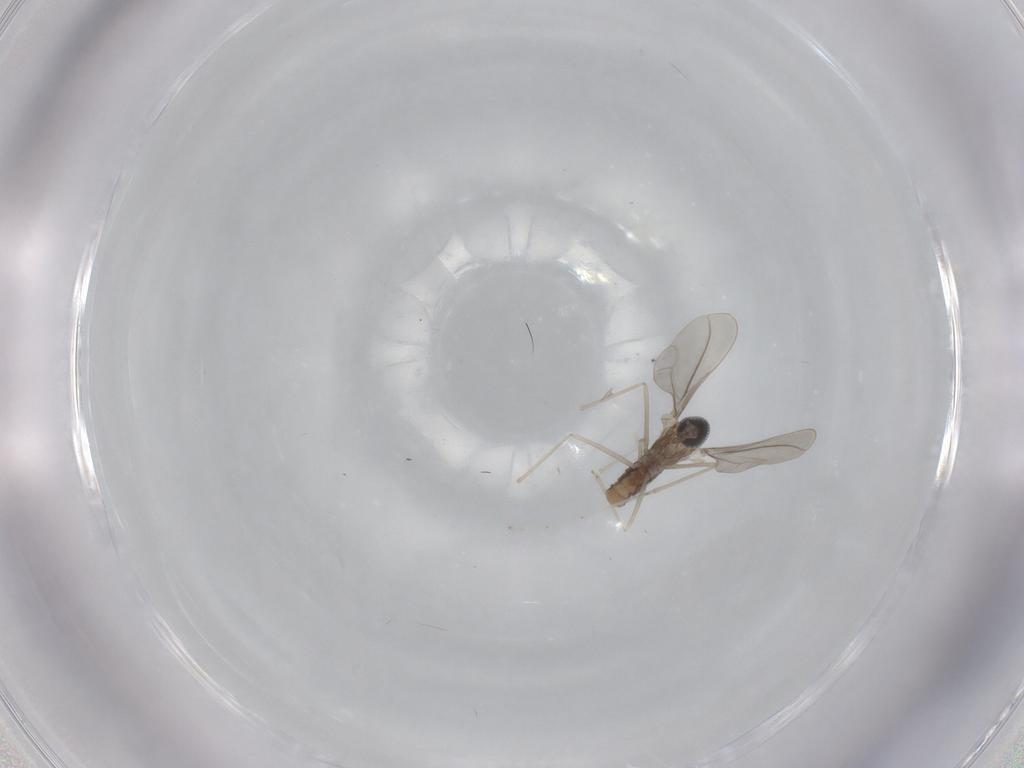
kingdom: Animalia
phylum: Arthropoda
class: Insecta
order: Diptera
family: Cecidomyiidae
